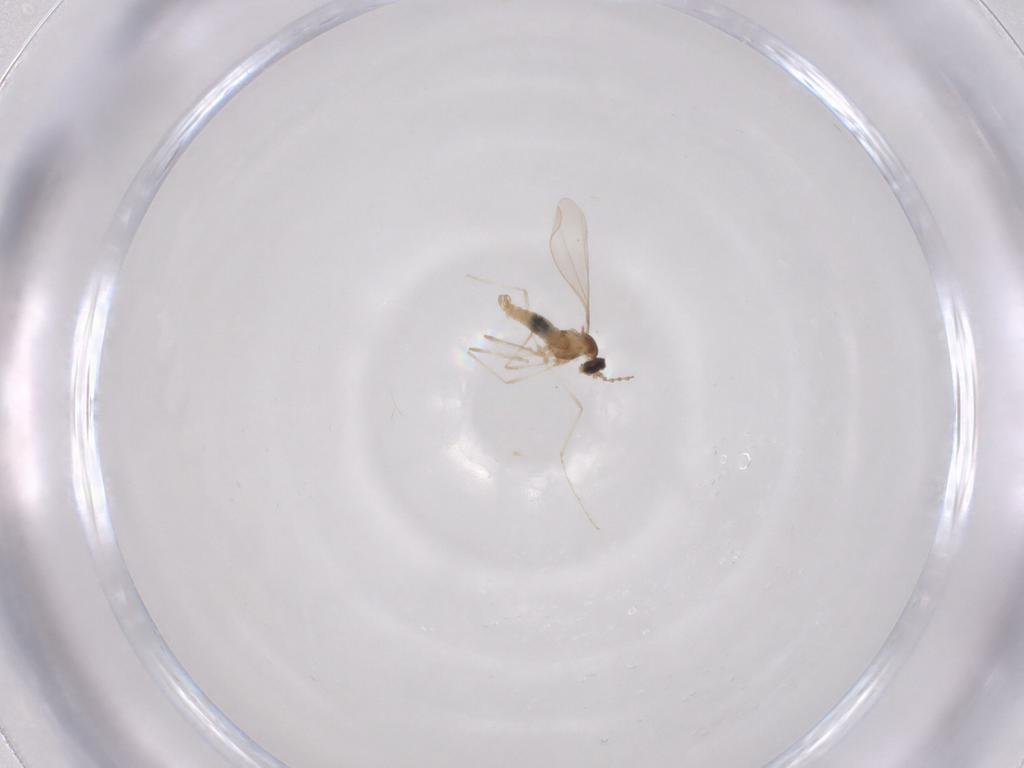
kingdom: Animalia
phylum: Arthropoda
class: Insecta
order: Diptera
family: Cecidomyiidae
